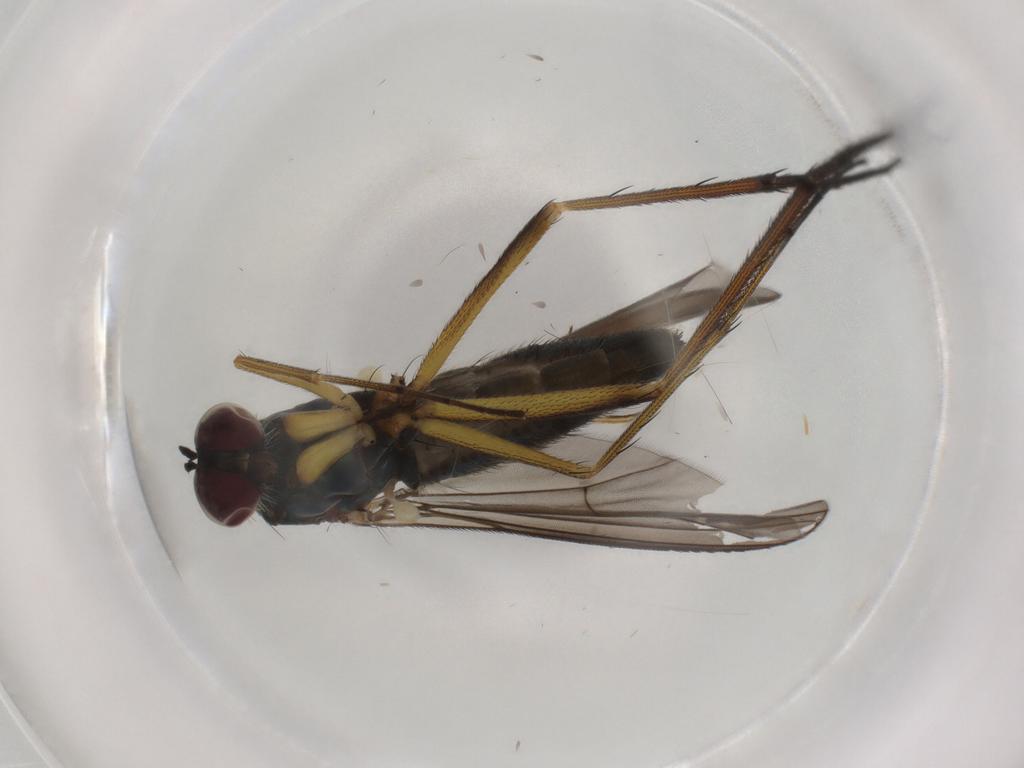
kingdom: Animalia
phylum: Arthropoda
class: Insecta
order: Diptera
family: Dolichopodidae
